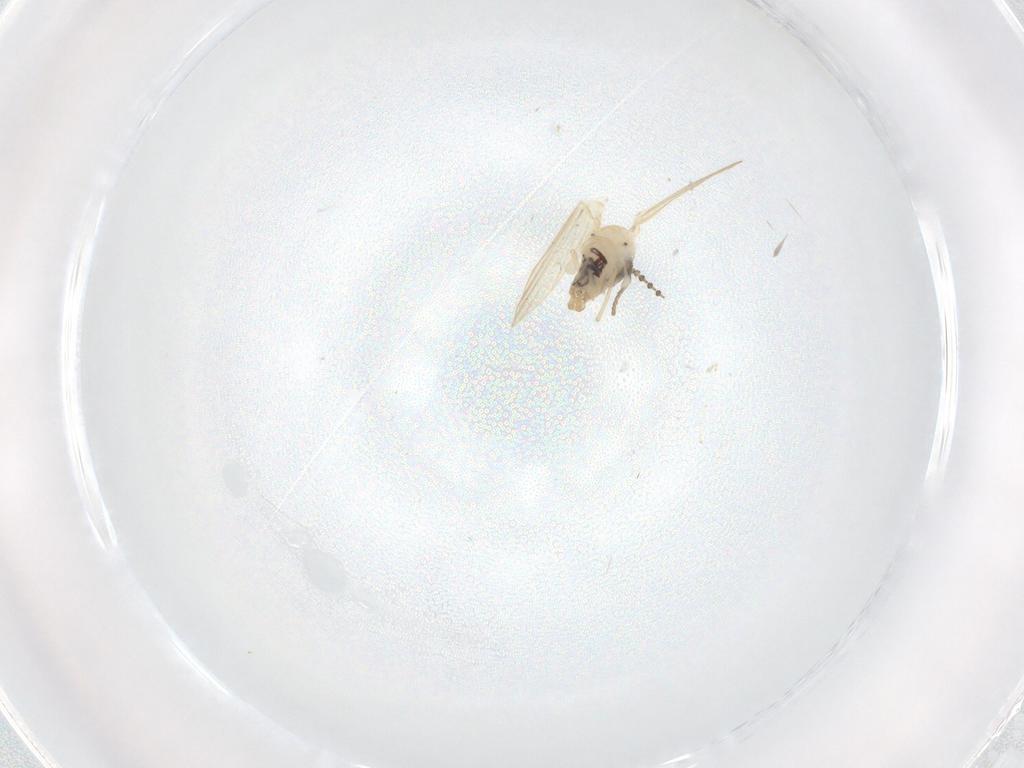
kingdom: Animalia
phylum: Arthropoda
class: Insecta
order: Diptera
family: Psychodidae
